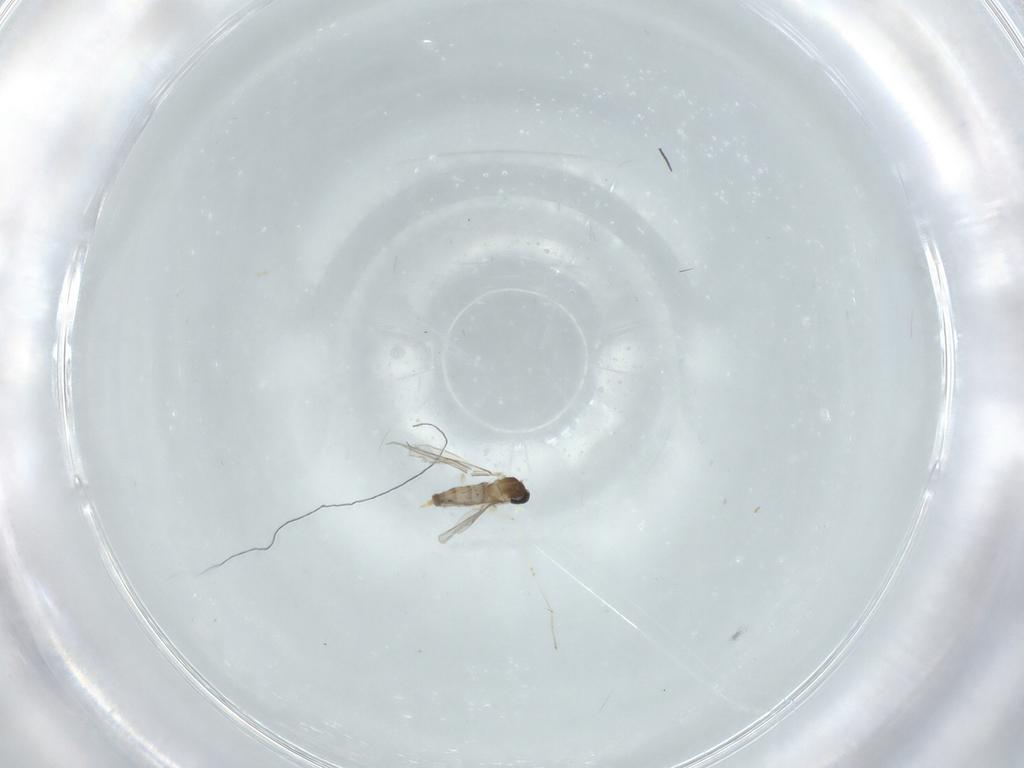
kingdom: Animalia
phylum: Arthropoda
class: Insecta
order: Diptera
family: Cecidomyiidae
